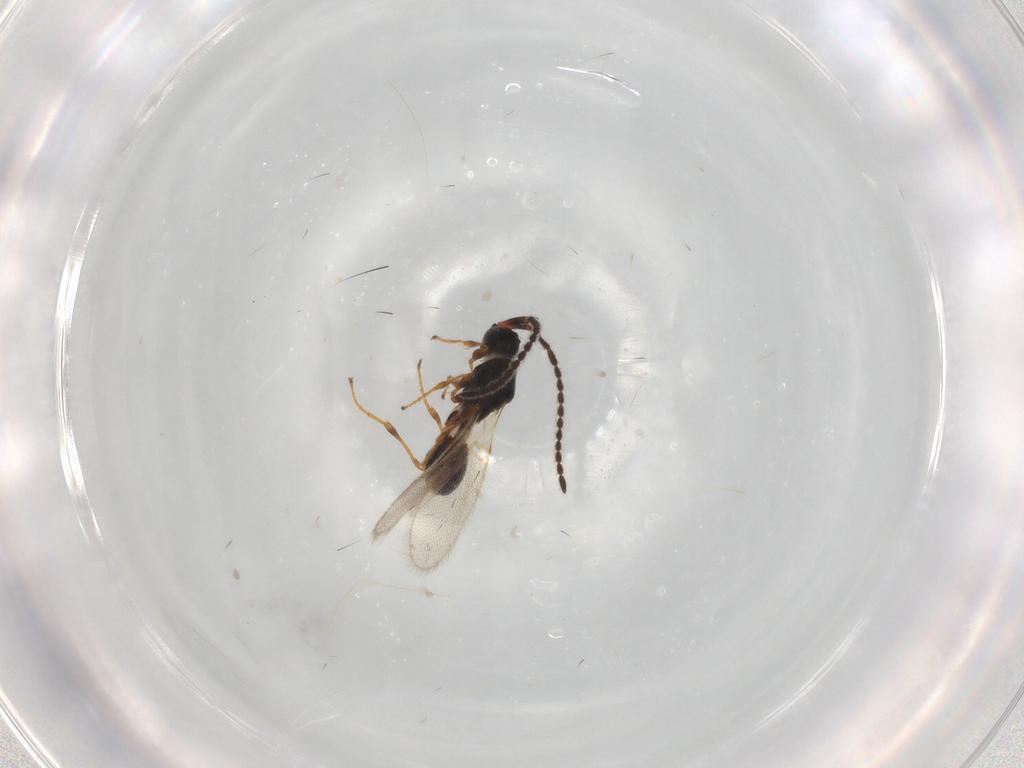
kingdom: Animalia
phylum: Arthropoda
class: Insecta
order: Hymenoptera
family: Diapriidae
